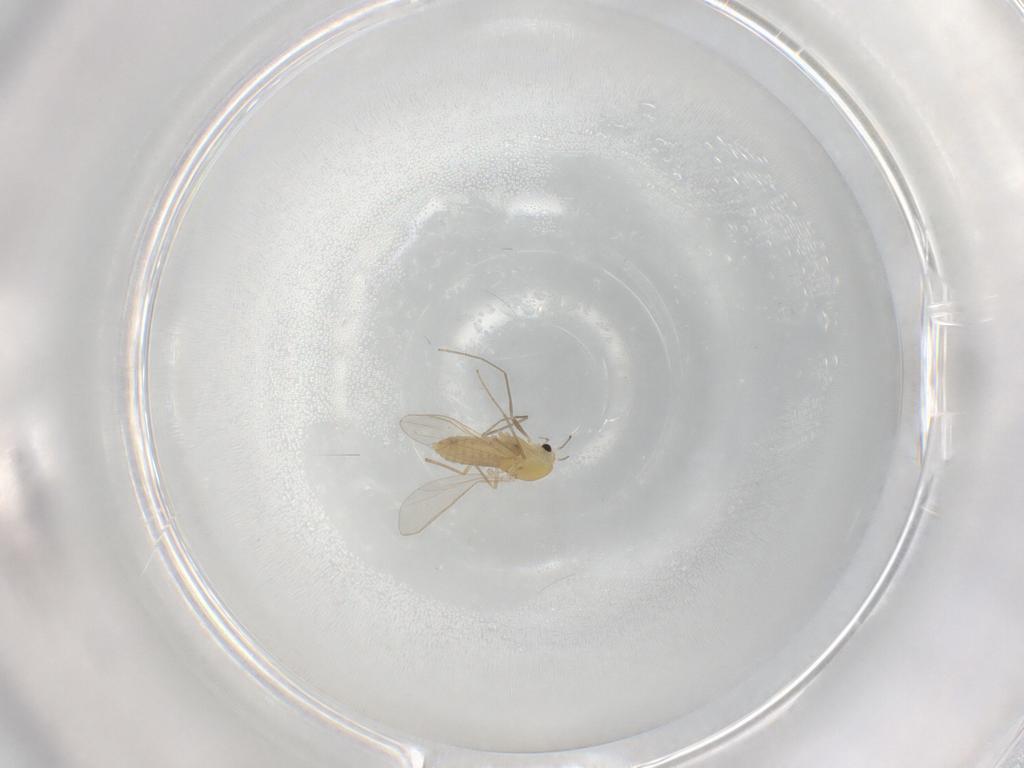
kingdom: Animalia
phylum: Arthropoda
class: Insecta
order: Diptera
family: Chironomidae
